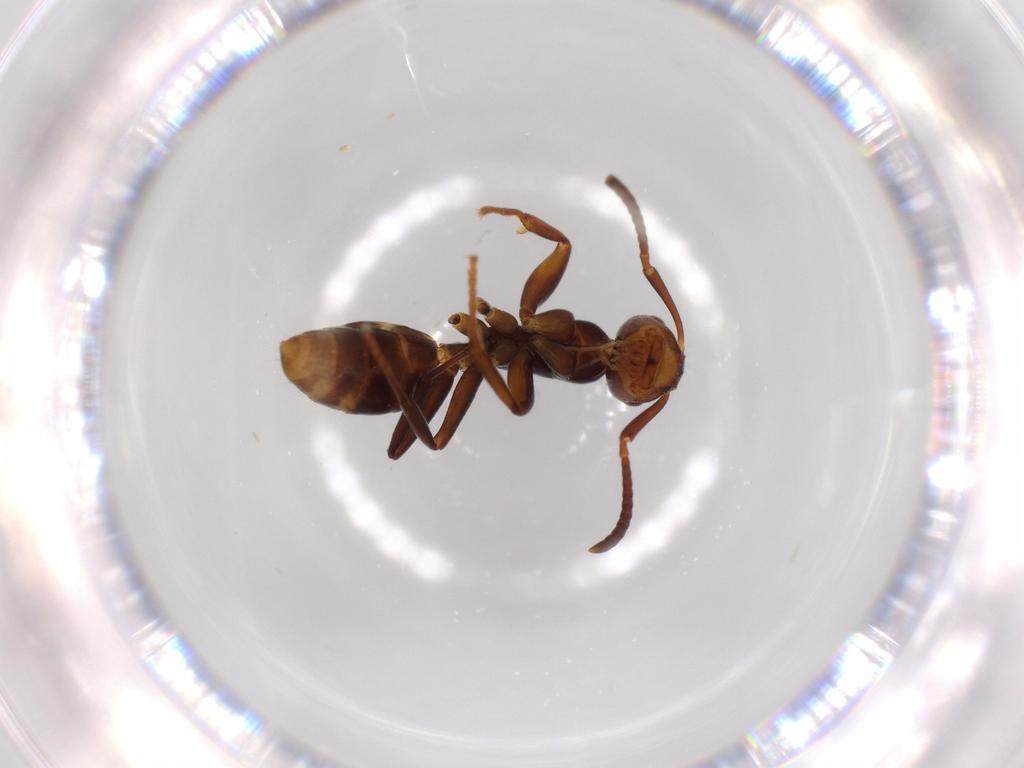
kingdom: Animalia
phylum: Arthropoda
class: Insecta
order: Hymenoptera
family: Formicidae
